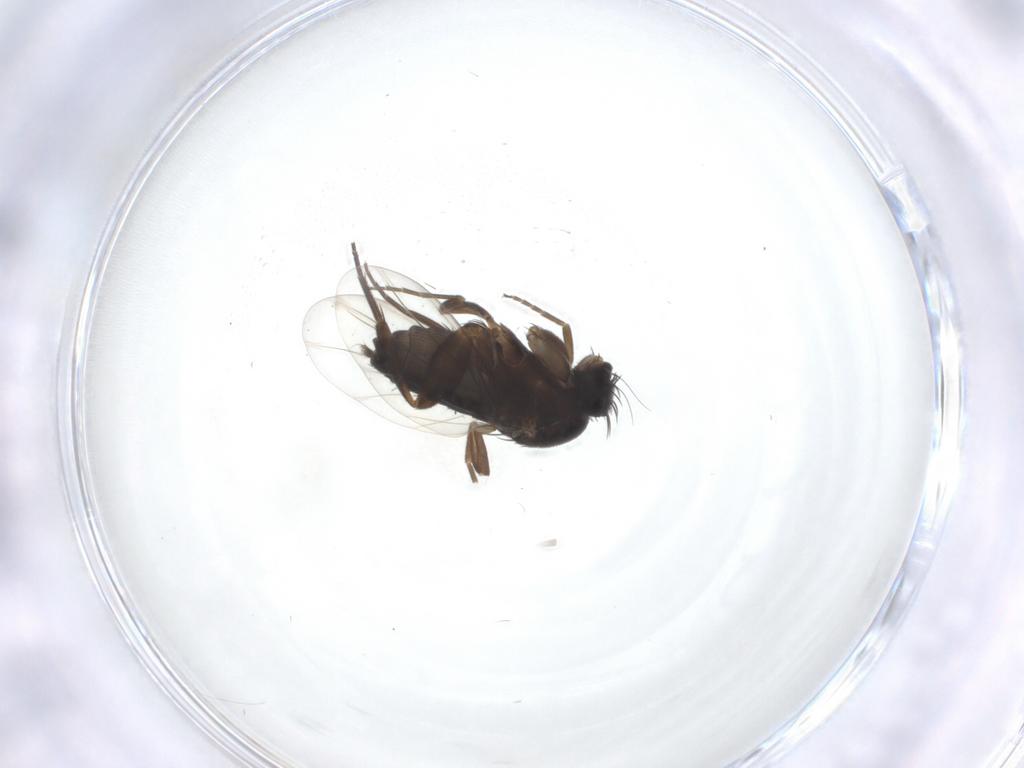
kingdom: Animalia
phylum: Arthropoda
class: Insecta
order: Diptera
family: Phoridae
